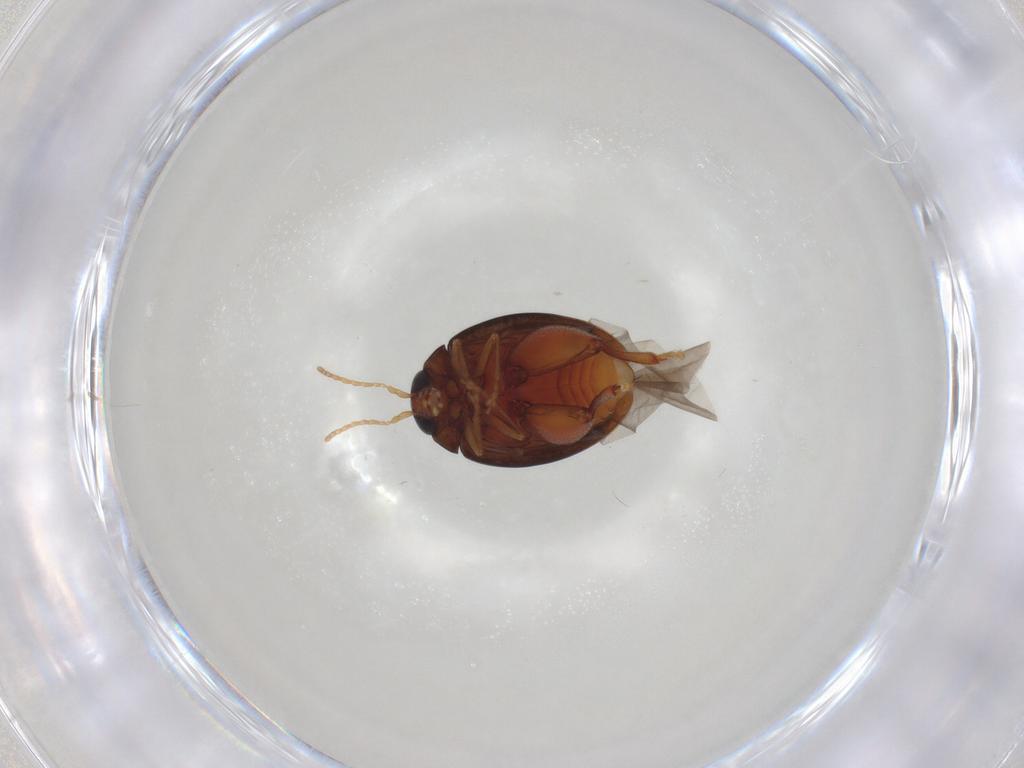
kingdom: Animalia
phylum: Arthropoda
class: Insecta
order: Coleoptera
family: Chrysomelidae
